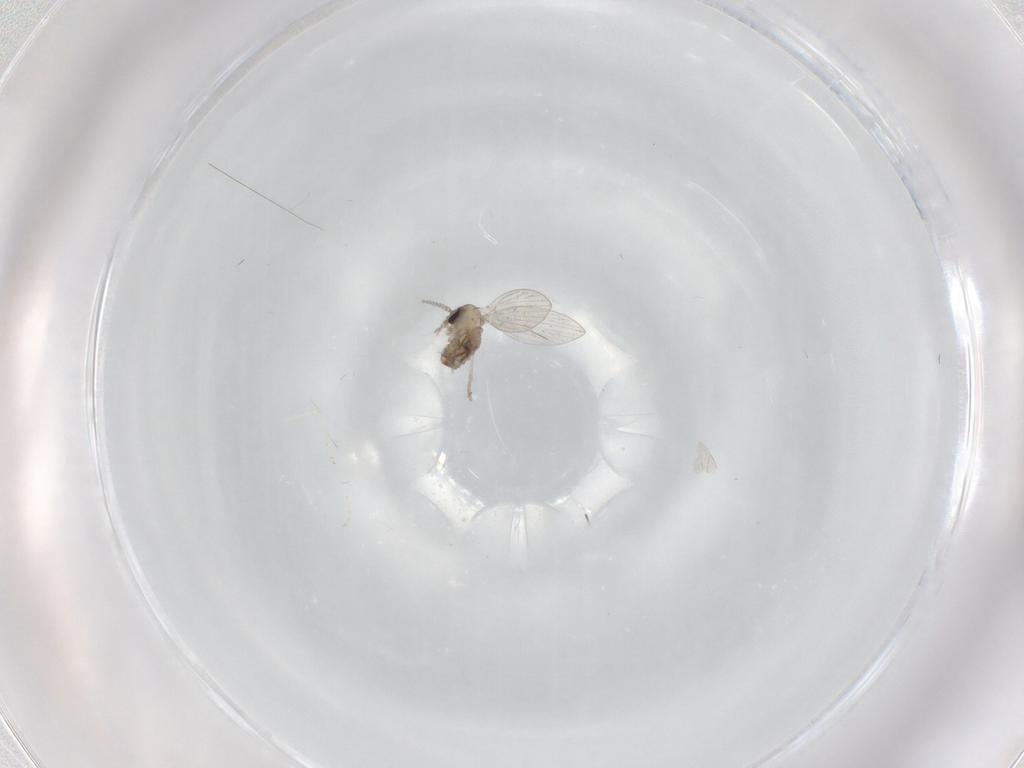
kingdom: Animalia
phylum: Arthropoda
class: Insecta
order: Diptera
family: Psychodidae
